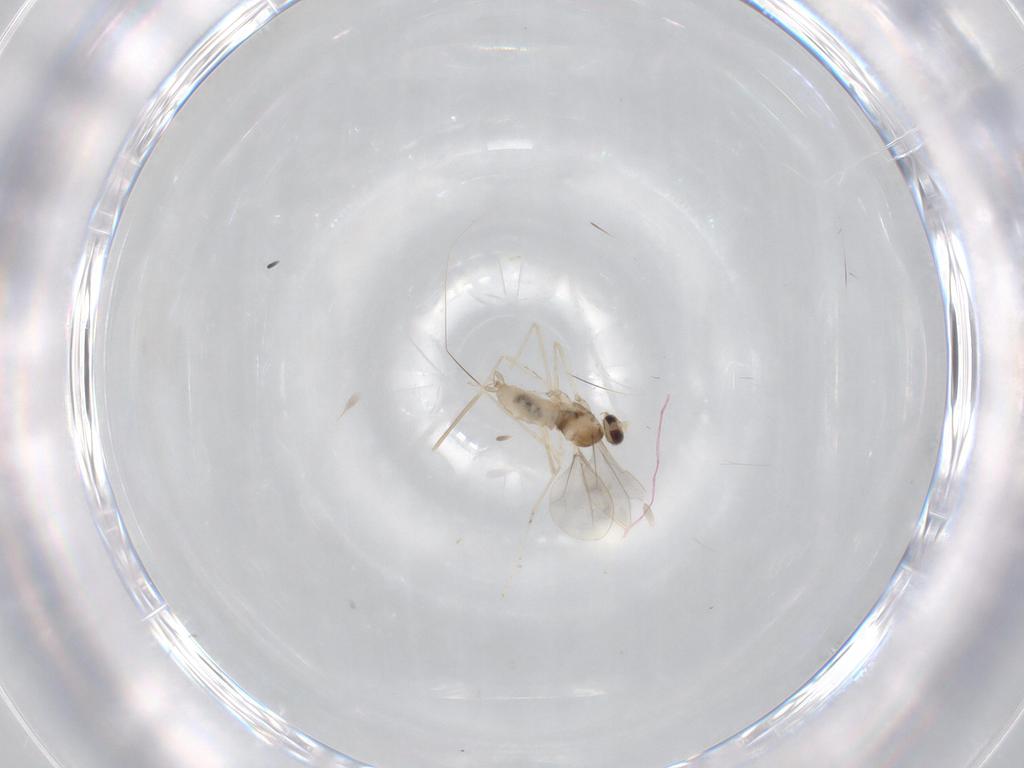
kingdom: Animalia
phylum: Arthropoda
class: Insecta
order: Diptera
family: Cecidomyiidae
